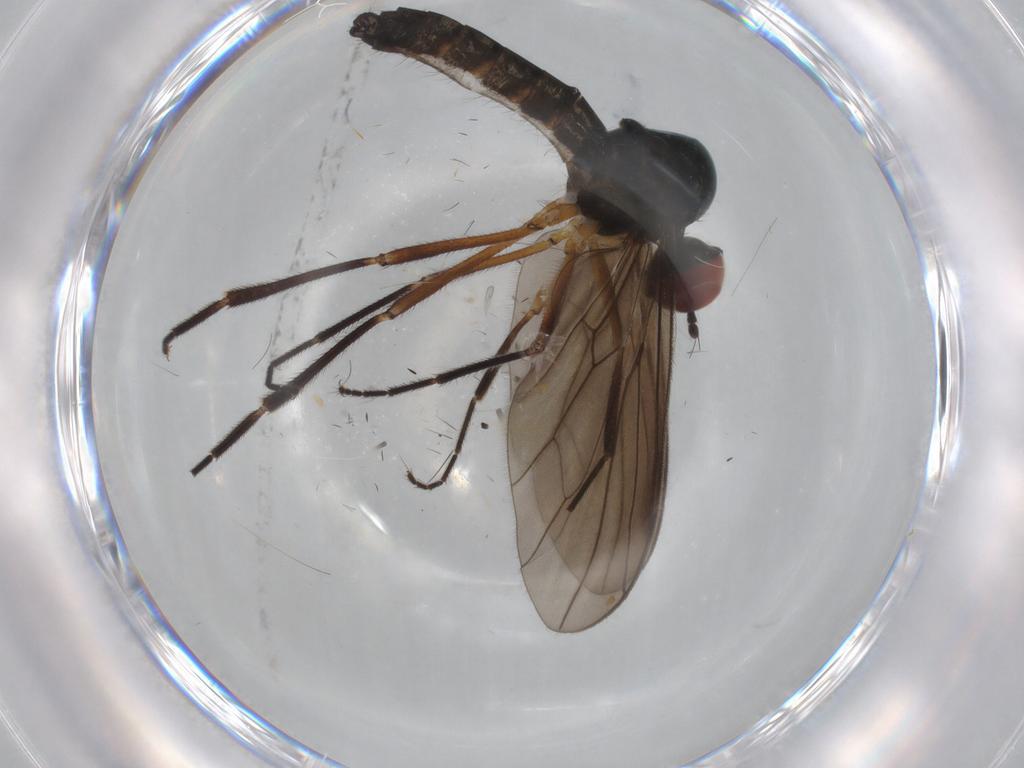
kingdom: Animalia
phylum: Arthropoda
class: Insecta
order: Diptera
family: Hybotidae
